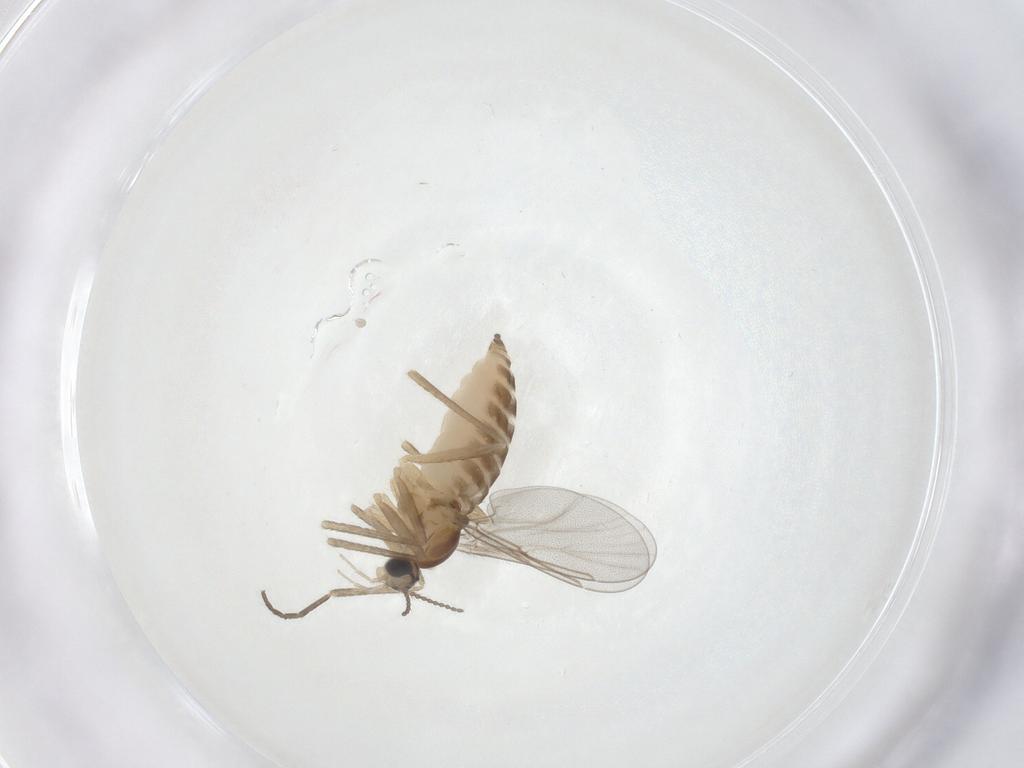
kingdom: Animalia
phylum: Arthropoda
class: Insecta
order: Diptera
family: Cecidomyiidae
